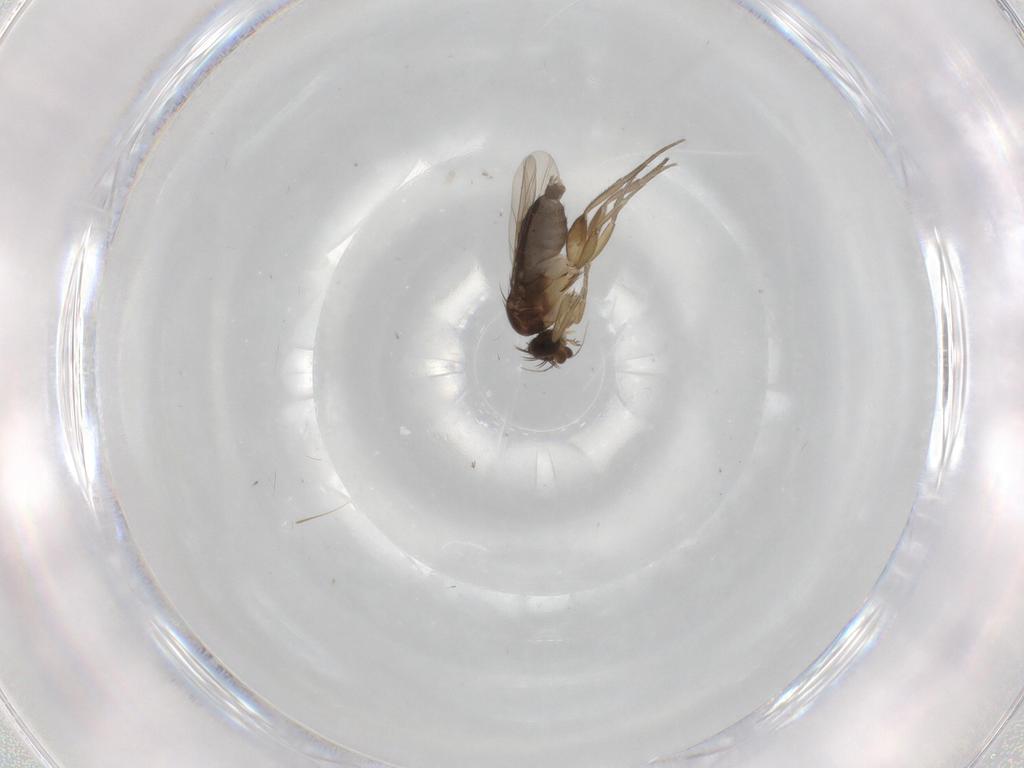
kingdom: Animalia
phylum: Arthropoda
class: Insecta
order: Diptera
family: Phoridae
